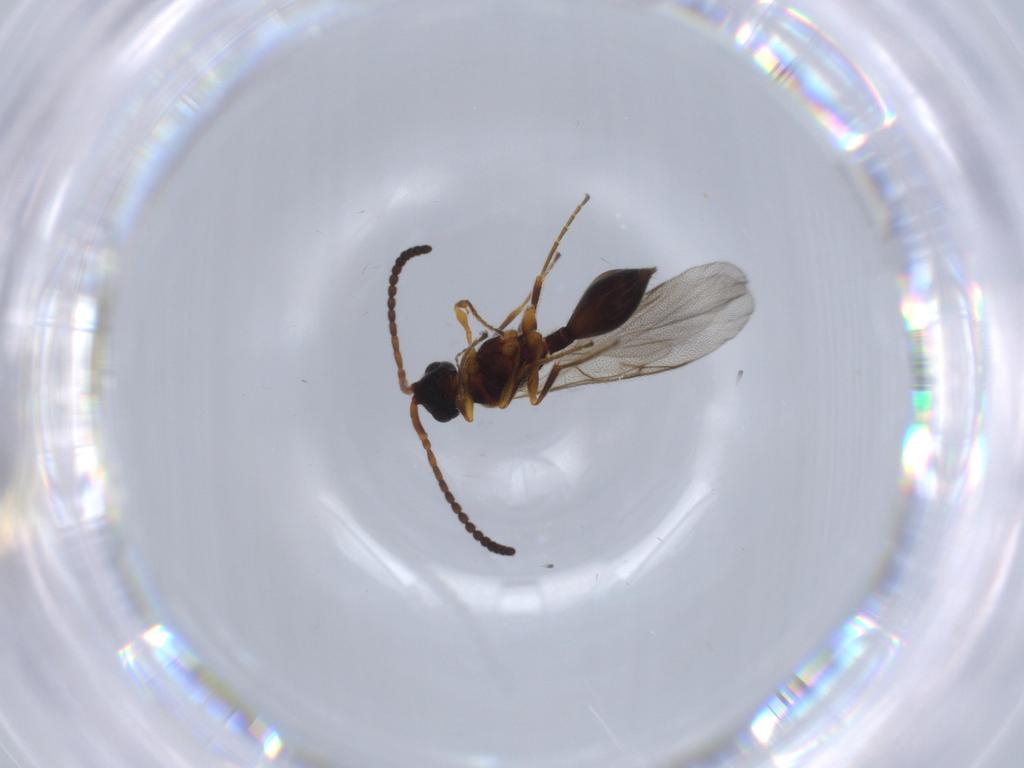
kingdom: Animalia
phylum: Arthropoda
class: Insecta
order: Hymenoptera
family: Diapriidae
